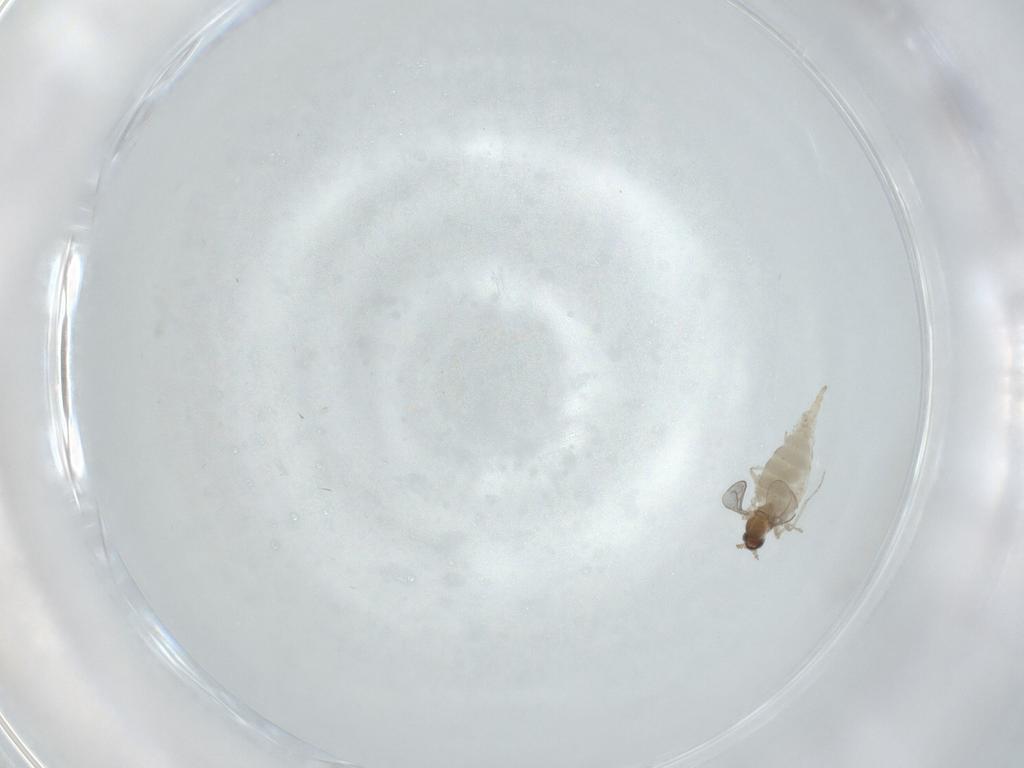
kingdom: Animalia
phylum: Arthropoda
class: Insecta
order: Diptera
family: Cecidomyiidae
